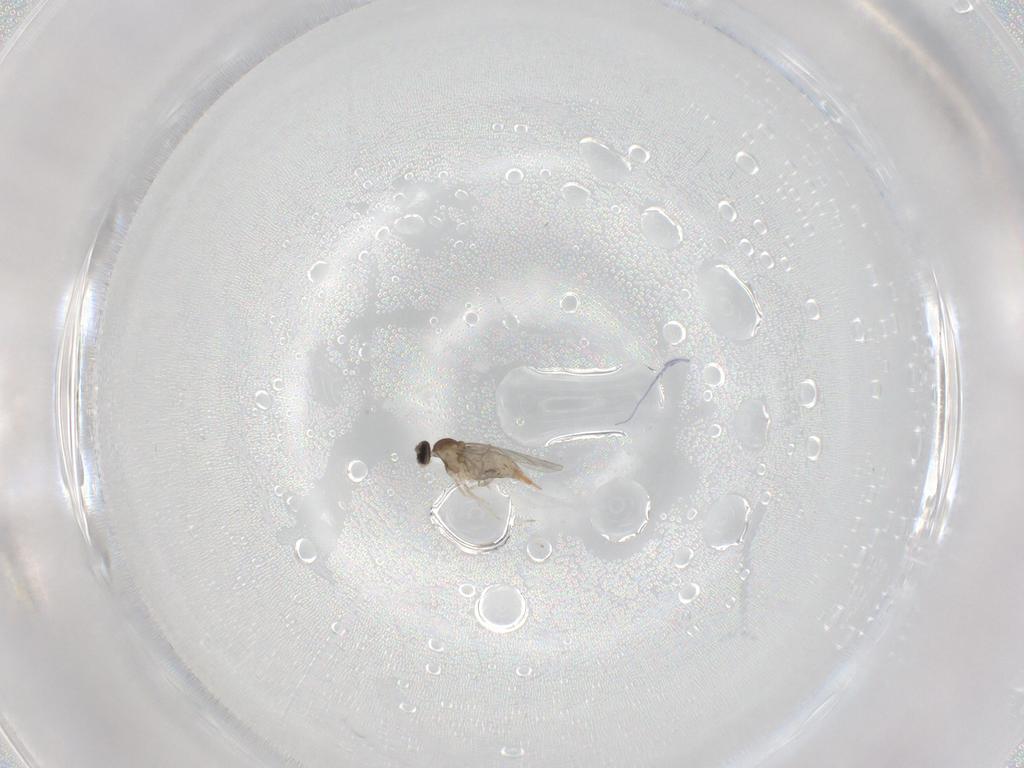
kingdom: Animalia
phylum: Arthropoda
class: Insecta
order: Diptera
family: Cecidomyiidae
